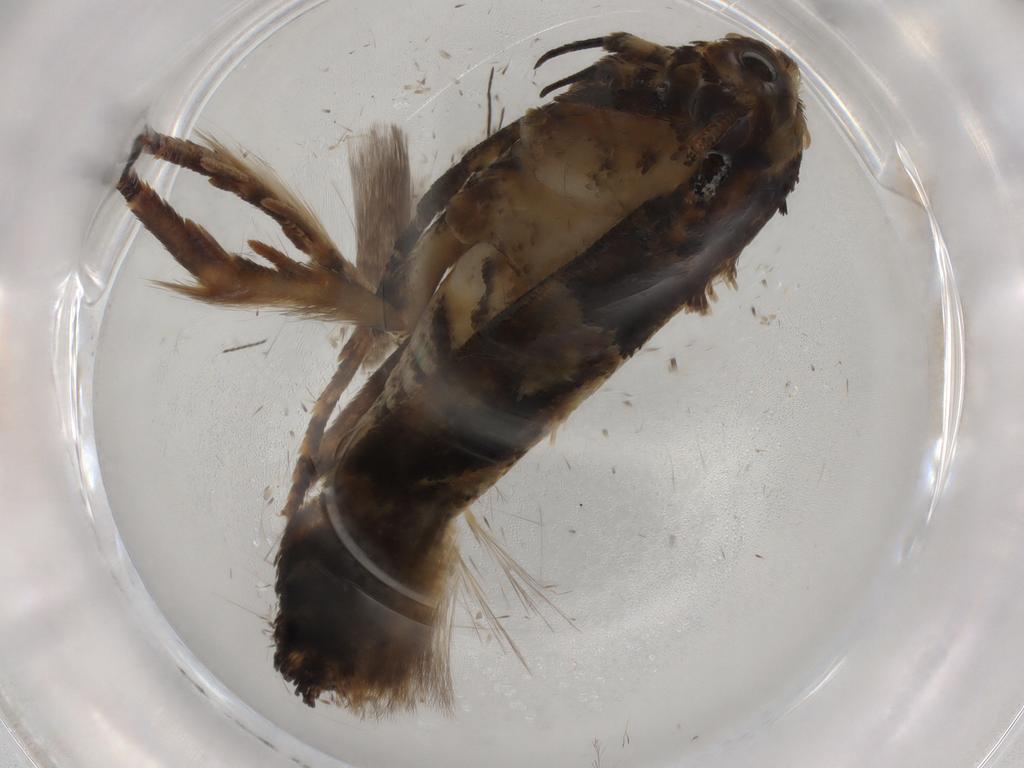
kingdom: Animalia
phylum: Arthropoda
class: Insecta
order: Lepidoptera
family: Gelechiidae
